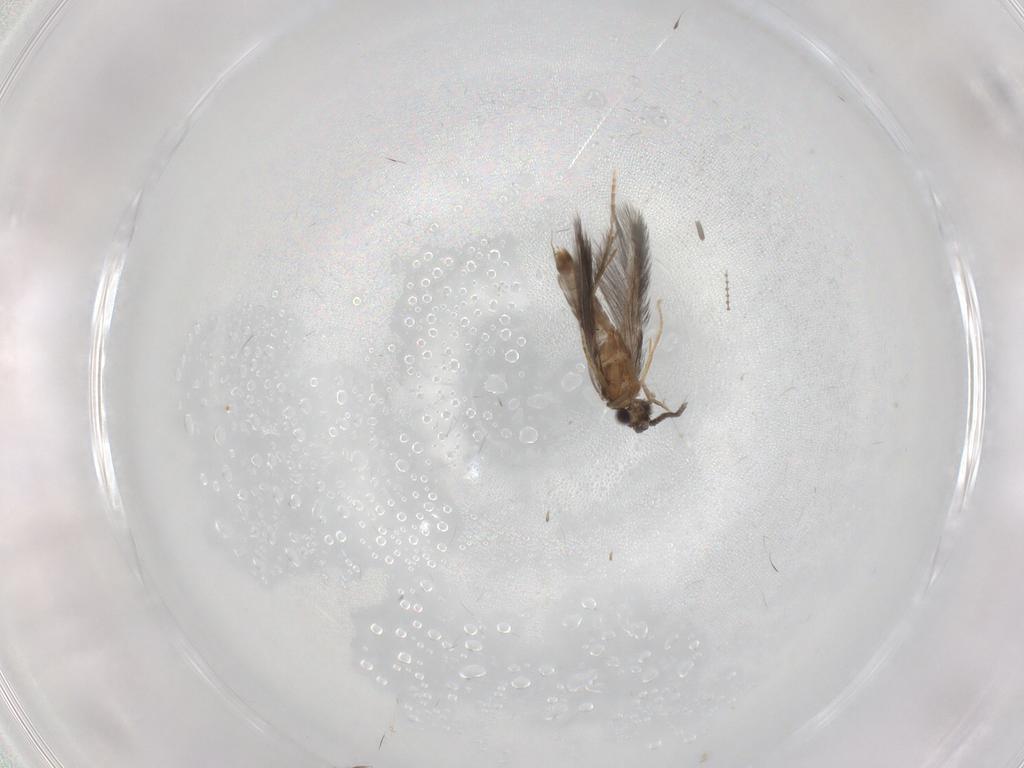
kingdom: Animalia
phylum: Arthropoda
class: Insecta
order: Trichoptera
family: Hydroptilidae
